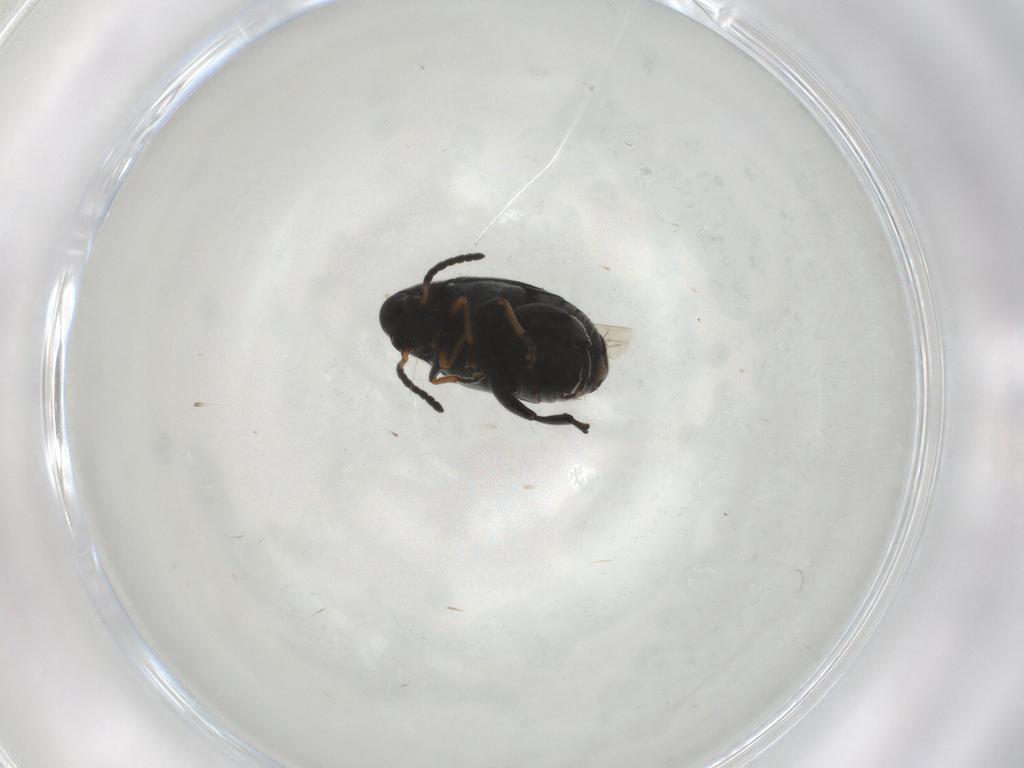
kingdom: Animalia
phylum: Arthropoda
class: Insecta
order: Coleoptera
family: Chrysomelidae
